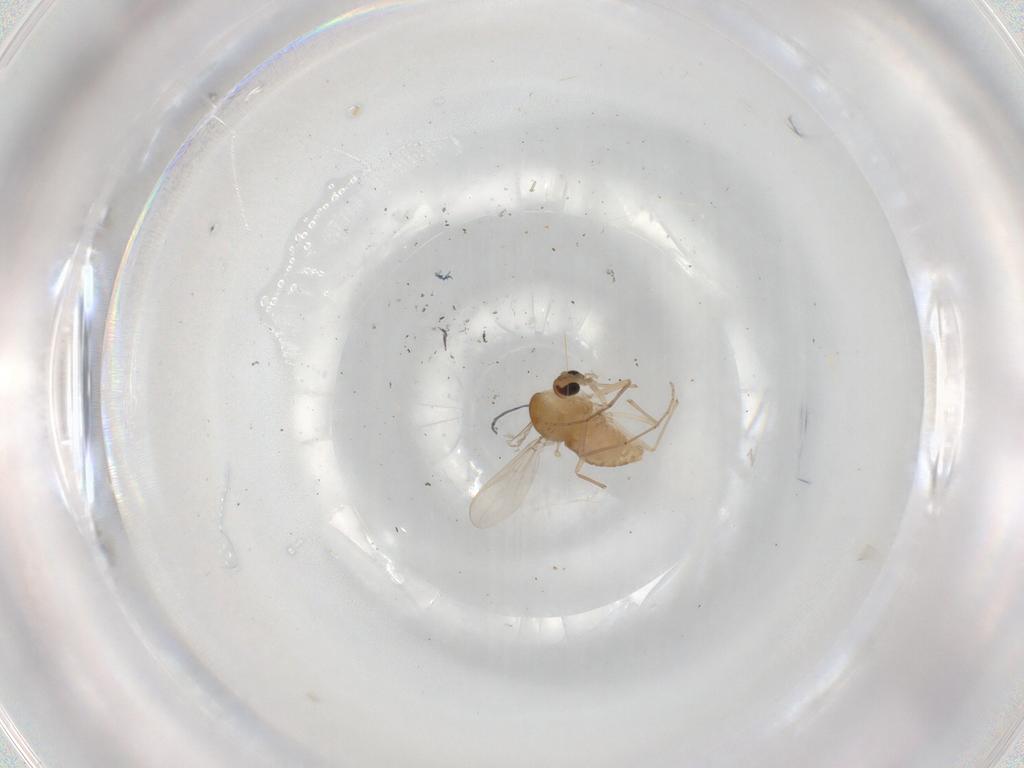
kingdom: Animalia
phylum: Arthropoda
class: Insecta
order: Diptera
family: Chironomidae
